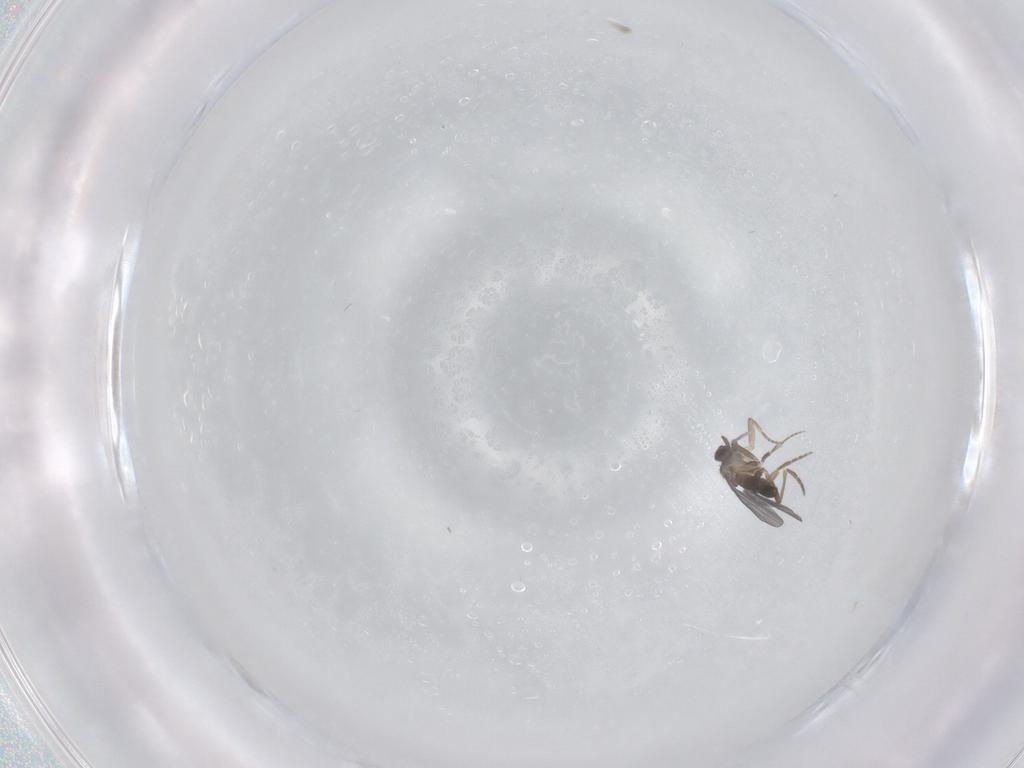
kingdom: Animalia
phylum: Arthropoda
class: Insecta
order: Diptera
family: Phoridae
